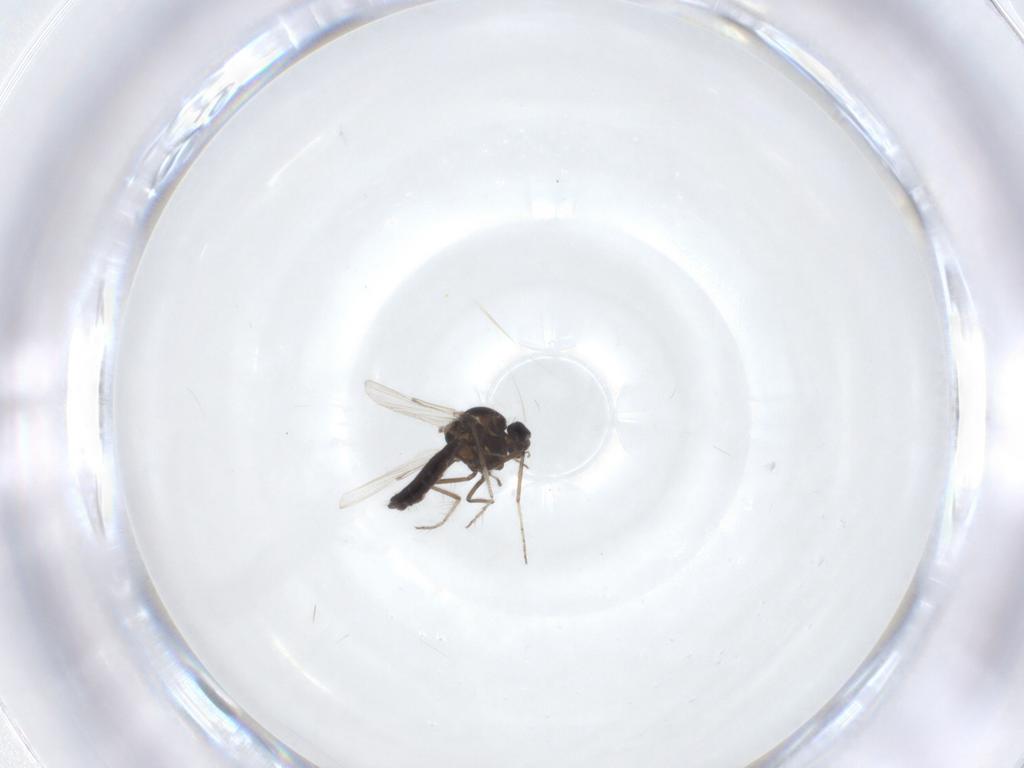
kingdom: Animalia
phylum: Arthropoda
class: Insecta
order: Diptera
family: Ceratopogonidae
